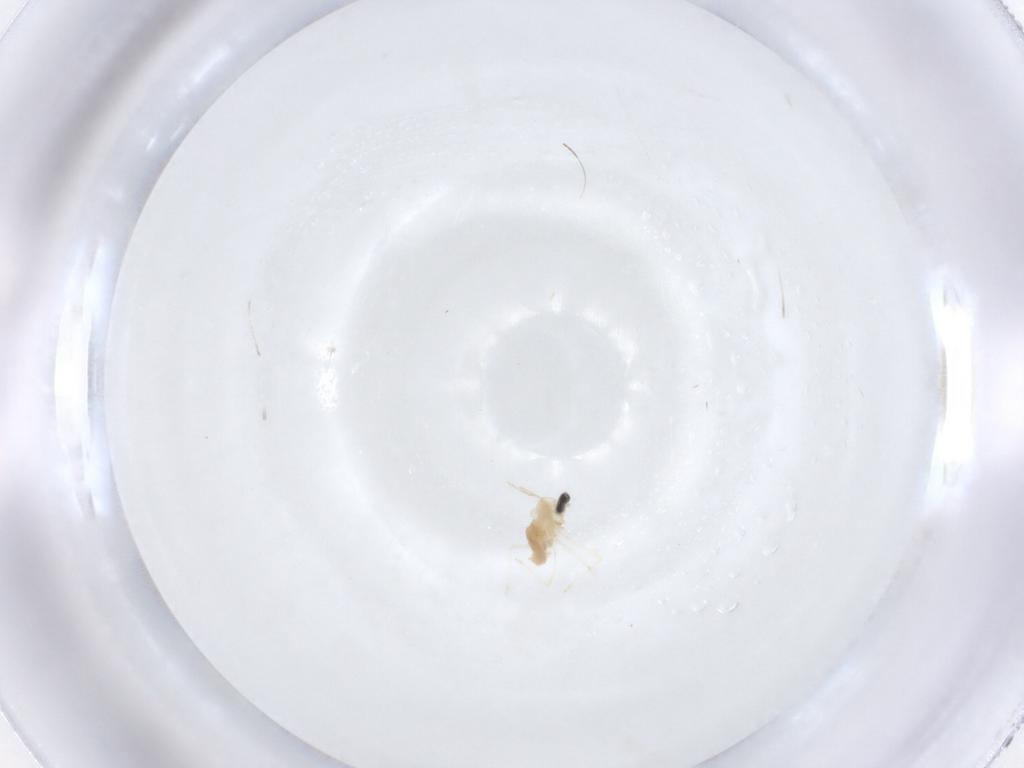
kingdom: Animalia
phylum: Arthropoda
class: Insecta
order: Diptera
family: Cecidomyiidae
